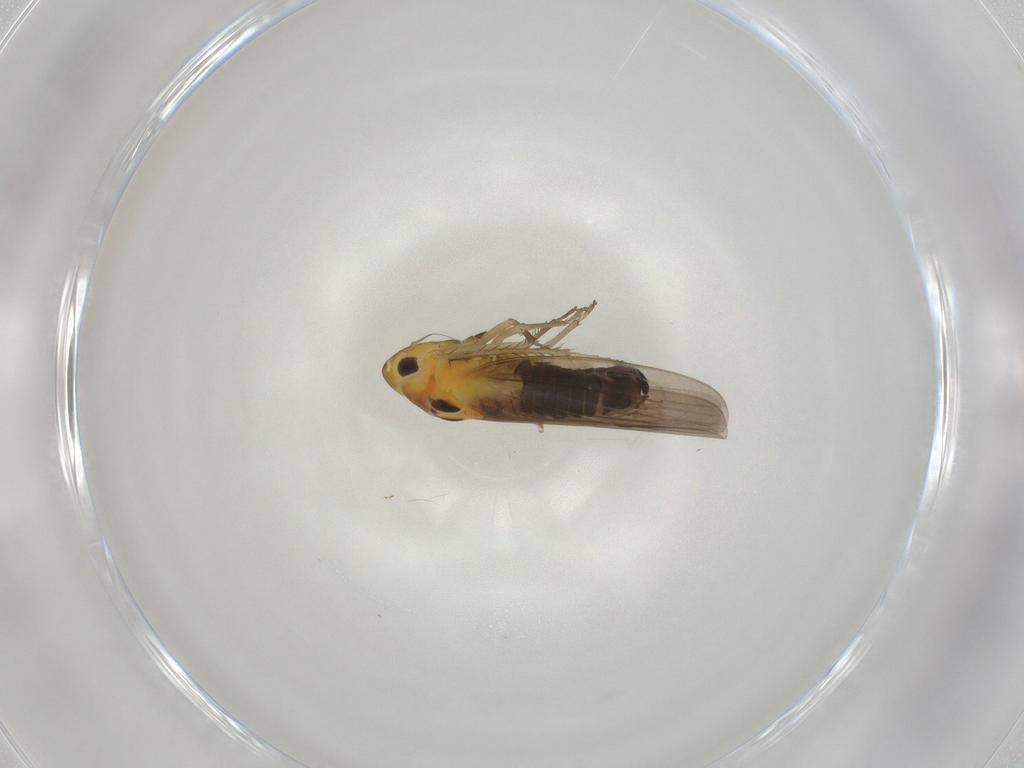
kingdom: Animalia
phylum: Arthropoda
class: Insecta
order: Hemiptera
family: Cicadellidae
